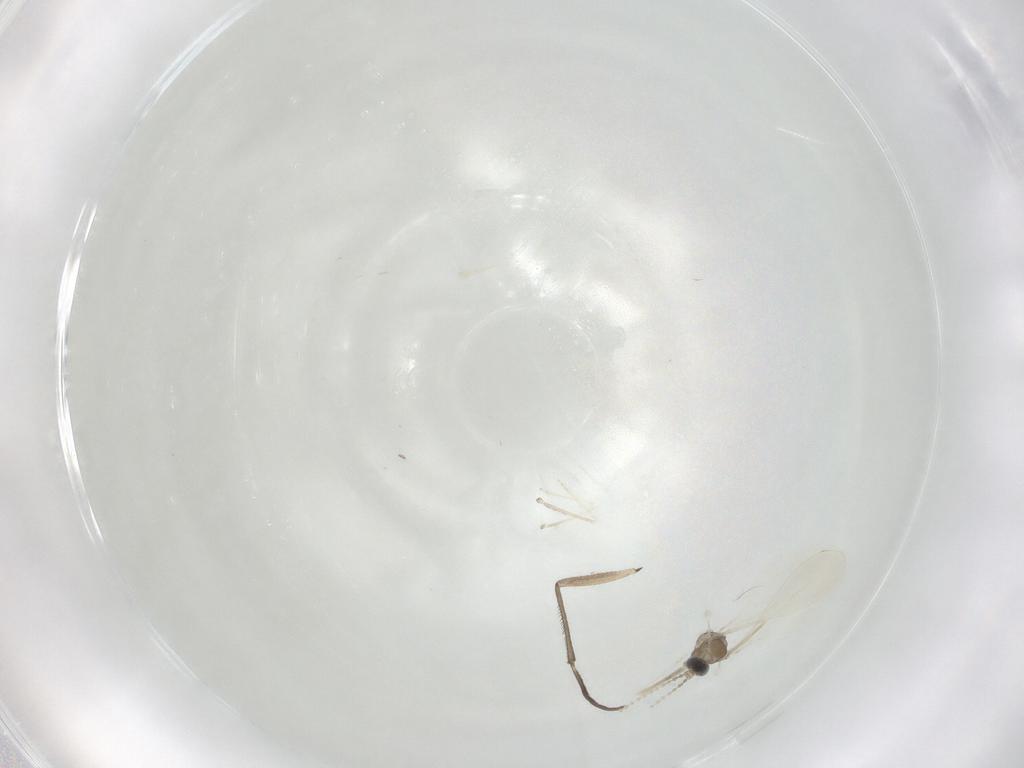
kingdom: Animalia
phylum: Arthropoda
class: Insecta
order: Diptera
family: Cecidomyiidae
